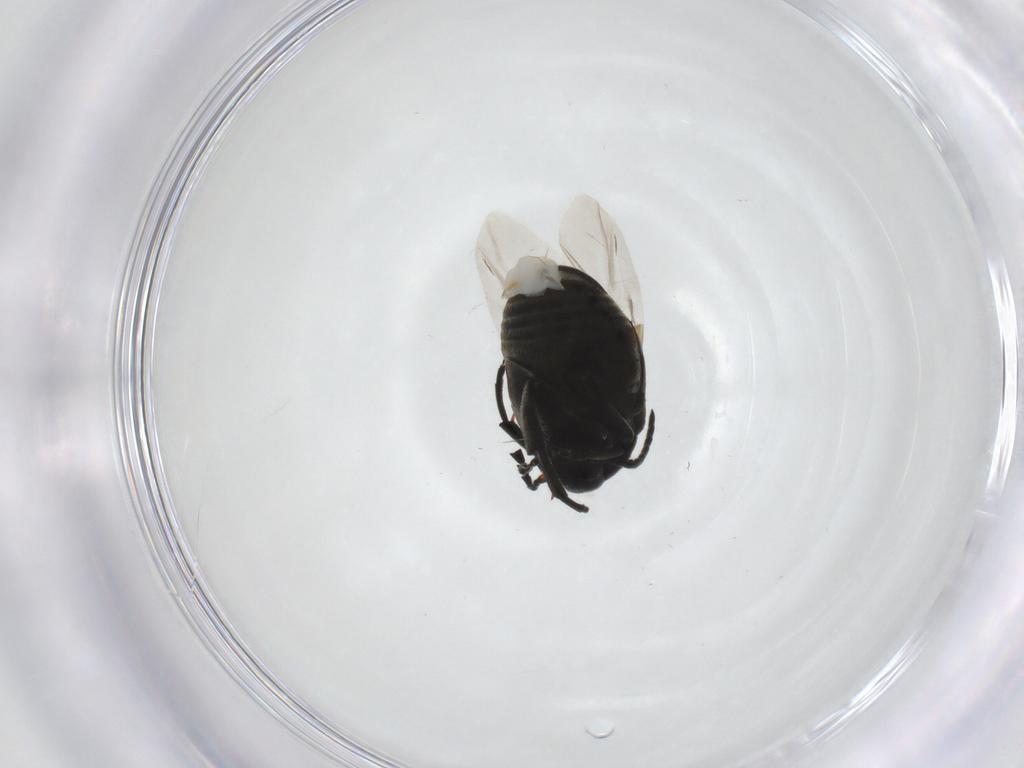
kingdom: Animalia
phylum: Arthropoda
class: Insecta
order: Coleoptera
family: Chrysomelidae
